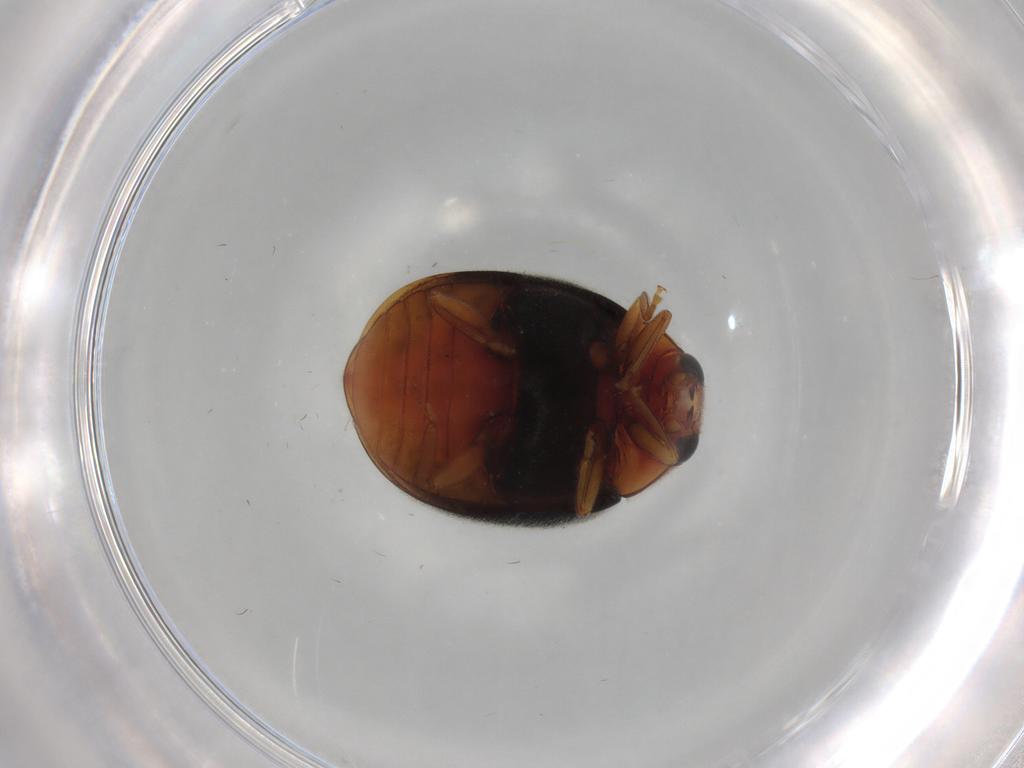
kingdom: Animalia
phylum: Arthropoda
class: Insecta
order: Coleoptera
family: Coccinellidae
